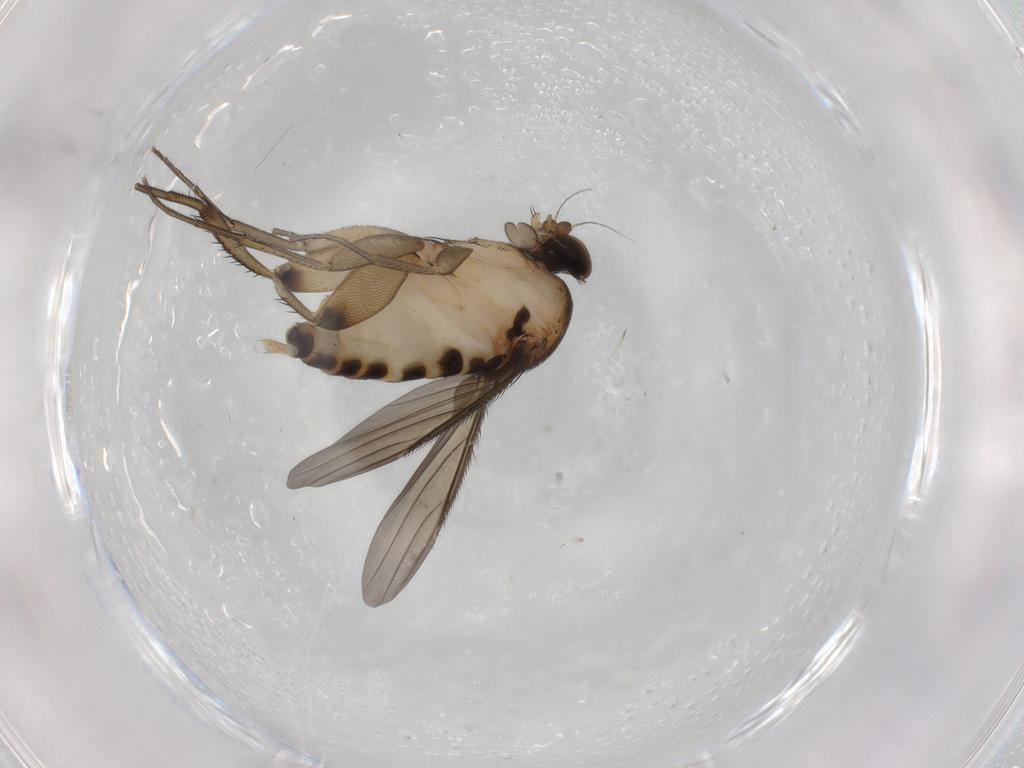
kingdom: Animalia
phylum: Arthropoda
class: Insecta
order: Diptera
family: Phoridae
